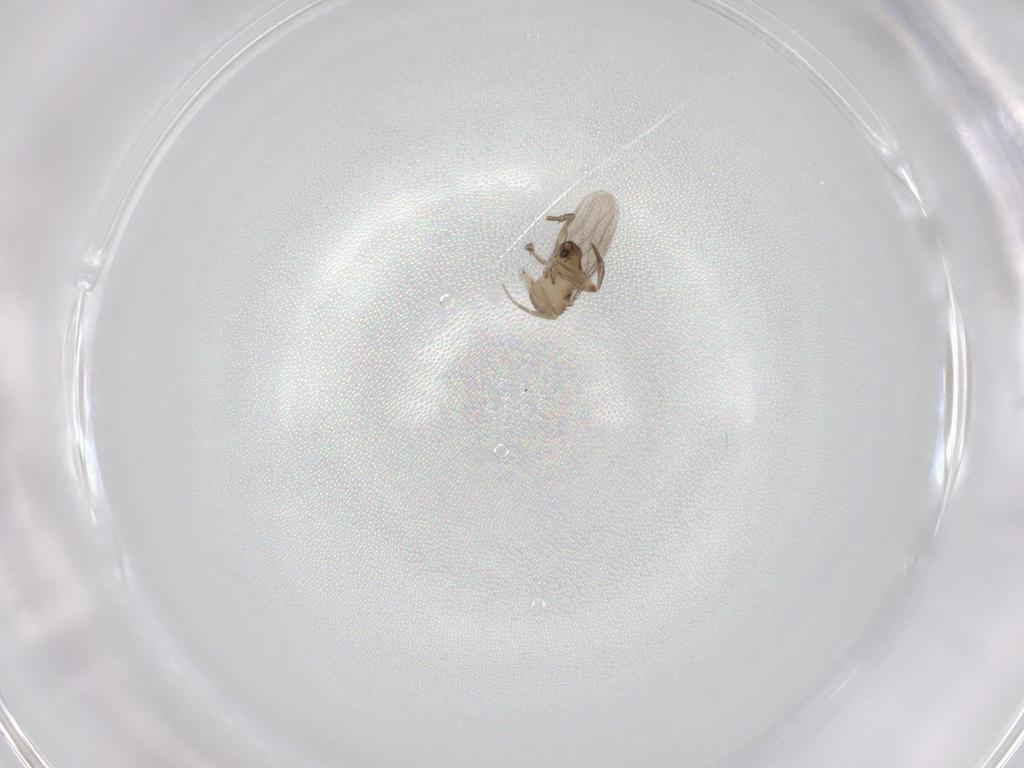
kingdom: Animalia
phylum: Arthropoda
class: Insecta
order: Diptera
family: Phoridae
